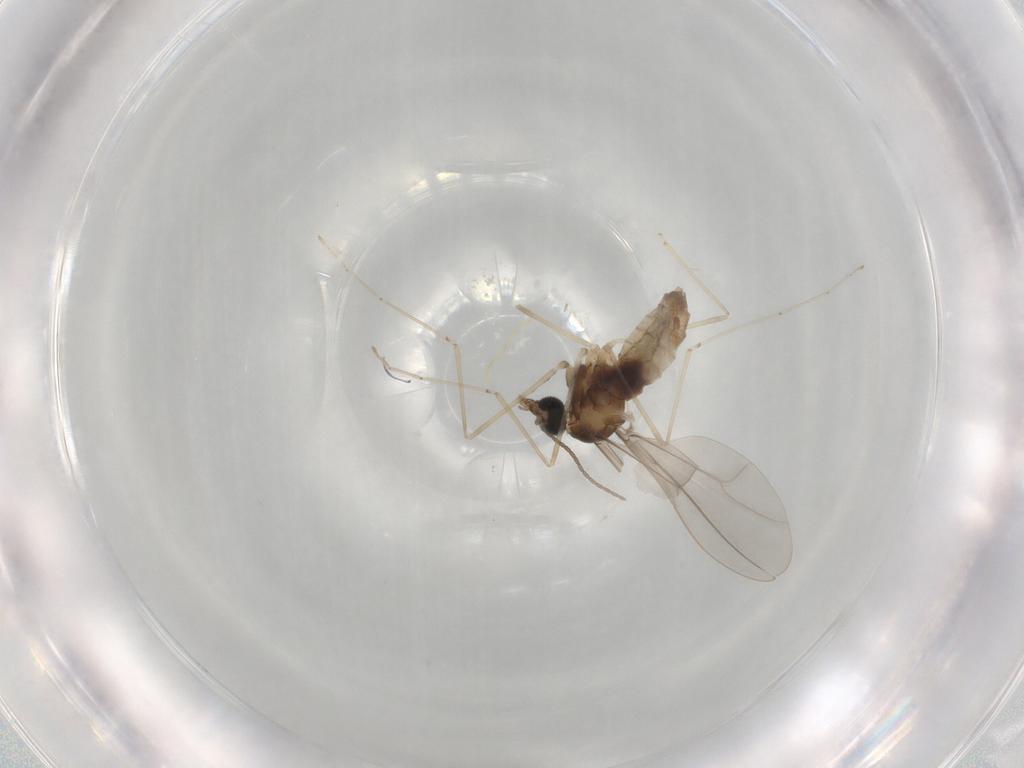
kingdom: Animalia
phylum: Arthropoda
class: Insecta
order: Diptera
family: Cecidomyiidae
